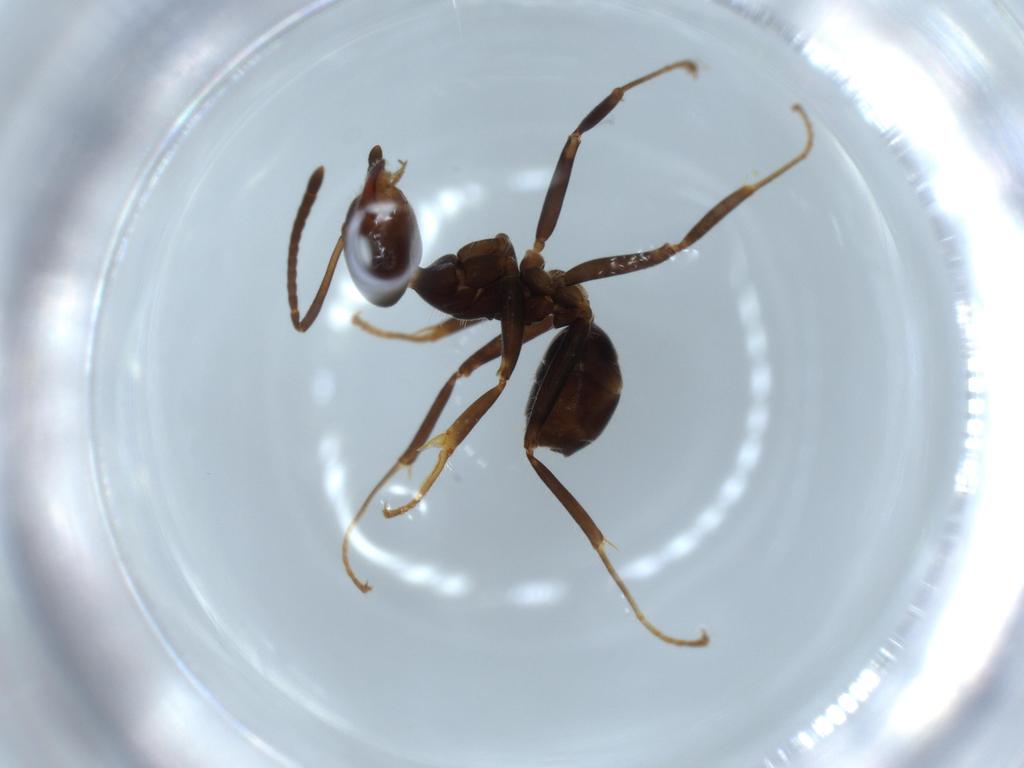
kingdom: Animalia
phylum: Arthropoda
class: Insecta
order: Hymenoptera
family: Formicidae
